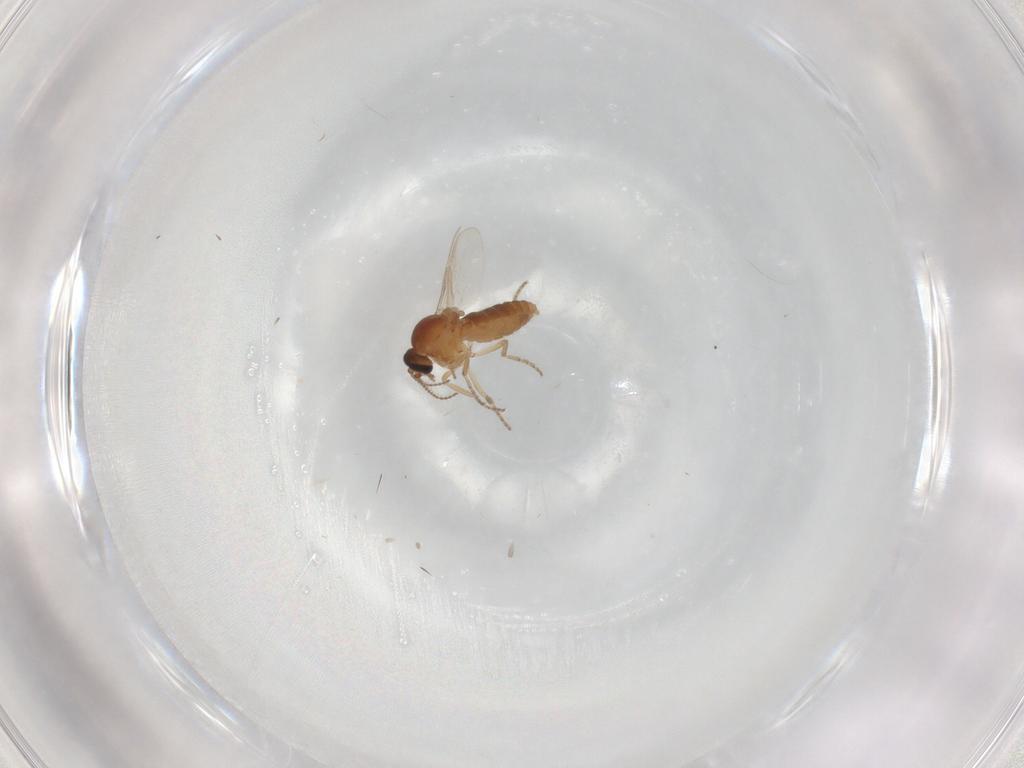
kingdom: Animalia
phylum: Arthropoda
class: Insecta
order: Diptera
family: Ceratopogonidae
